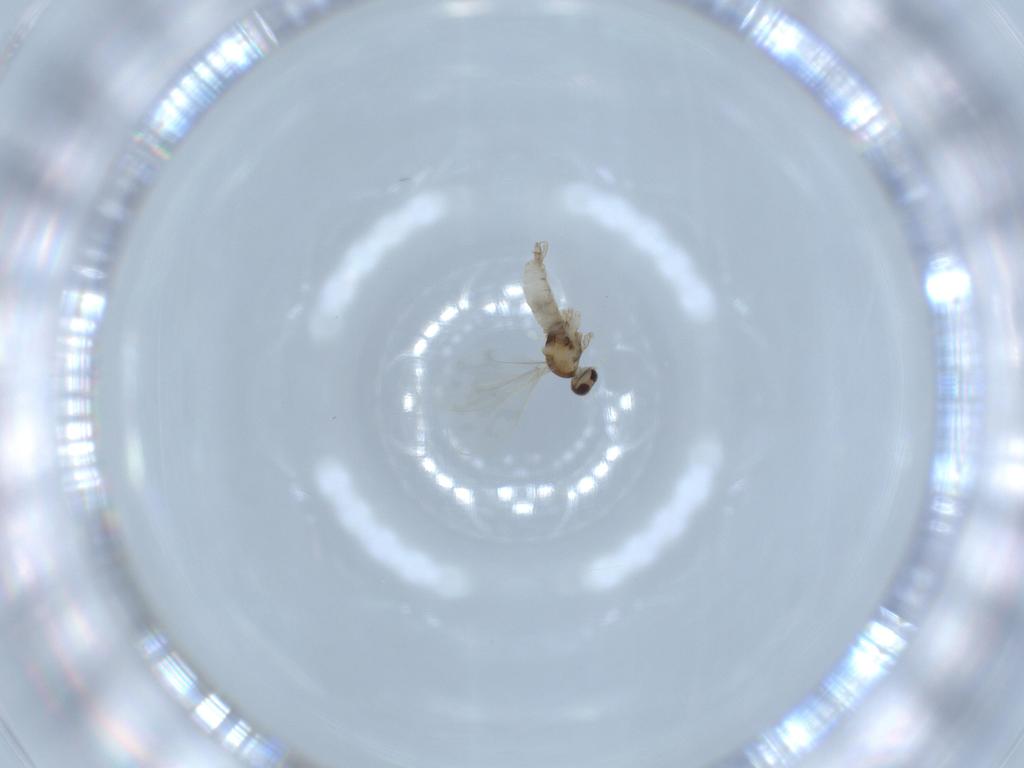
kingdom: Animalia
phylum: Arthropoda
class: Insecta
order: Diptera
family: Cecidomyiidae
